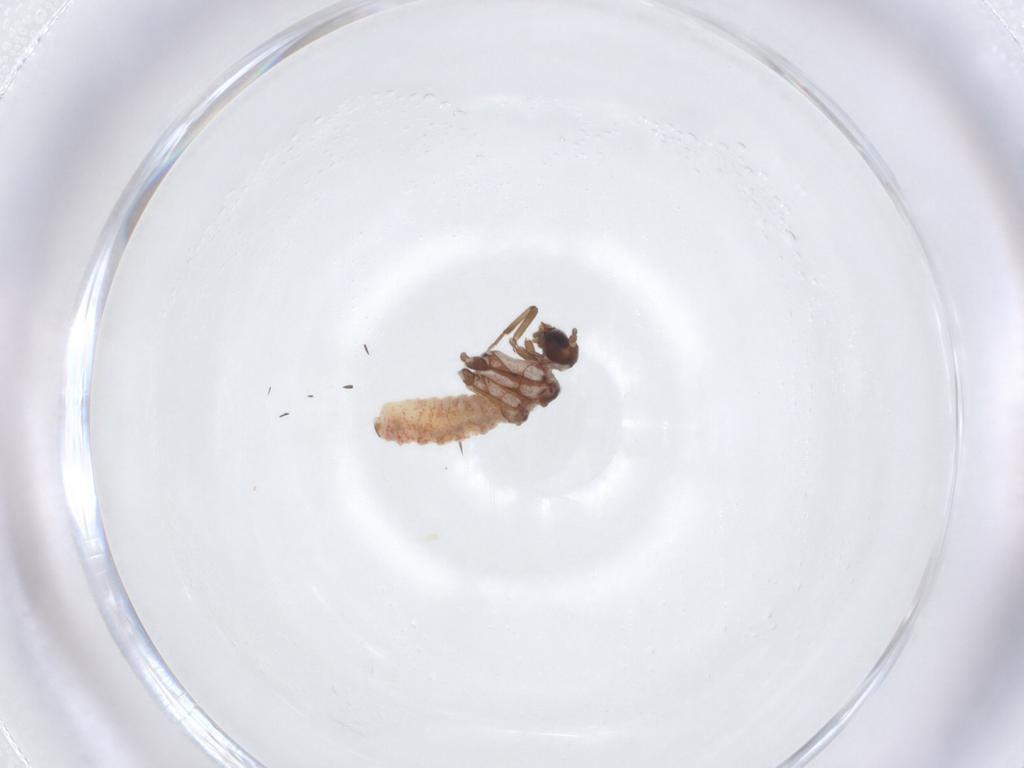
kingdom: Animalia
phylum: Arthropoda
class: Insecta
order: Neuroptera
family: Coniopterygidae
